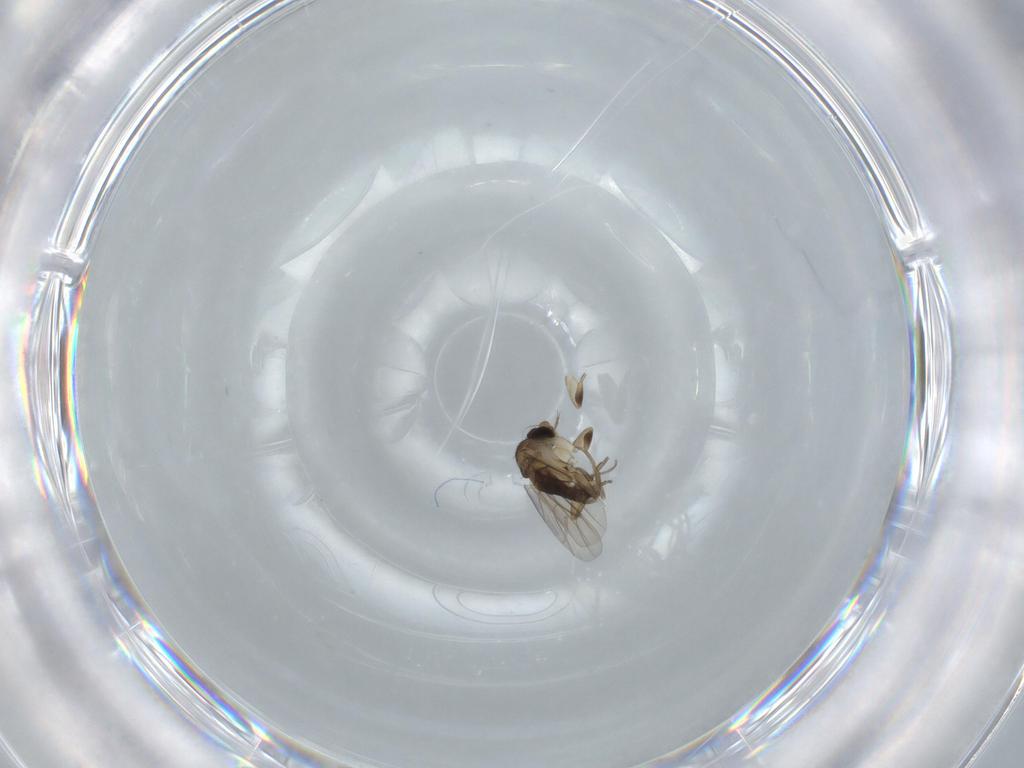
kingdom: Animalia
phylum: Arthropoda
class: Insecta
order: Diptera
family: Phoridae
